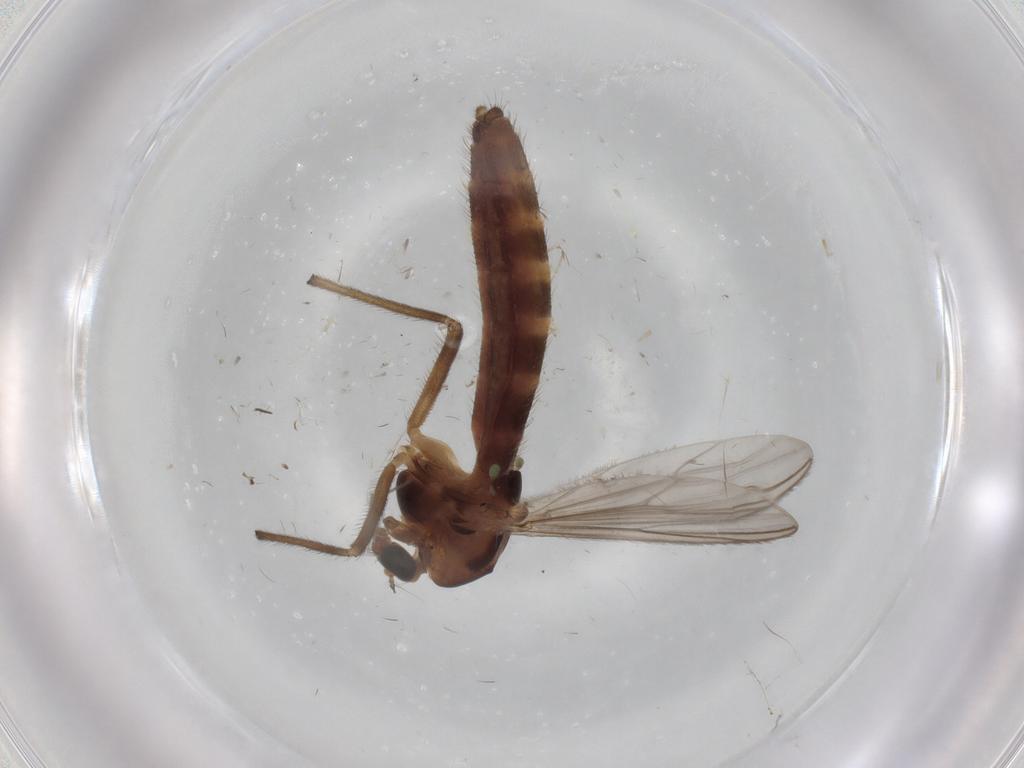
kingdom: Animalia
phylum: Arthropoda
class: Insecta
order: Diptera
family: Chironomidae
